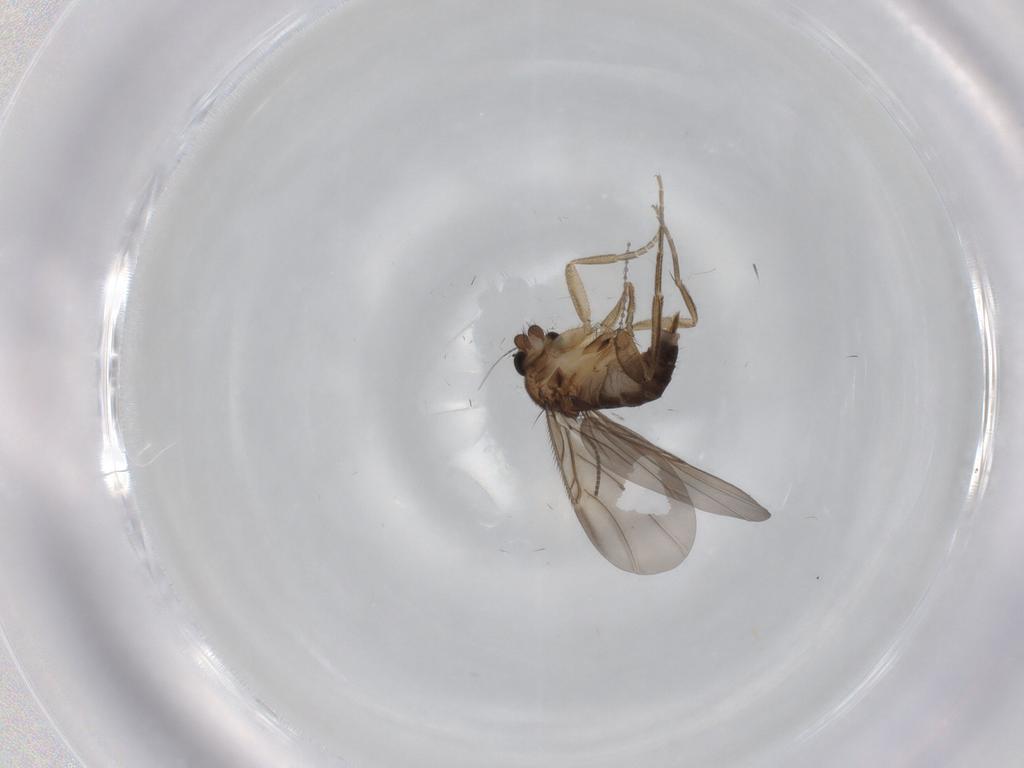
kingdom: Animalia
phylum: Arthropoda
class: Insecta
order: Diptera
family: Phoridae
